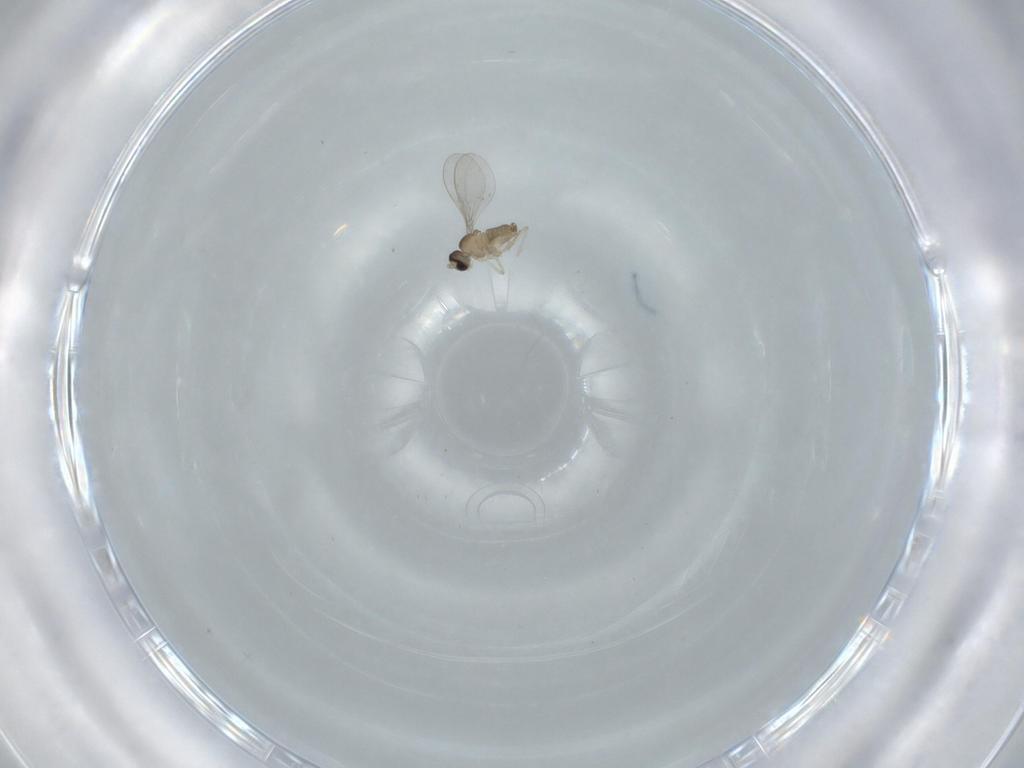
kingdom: Animalia
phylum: Arthropoda
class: Insecta
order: Diptera
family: Cecidomyiidae
